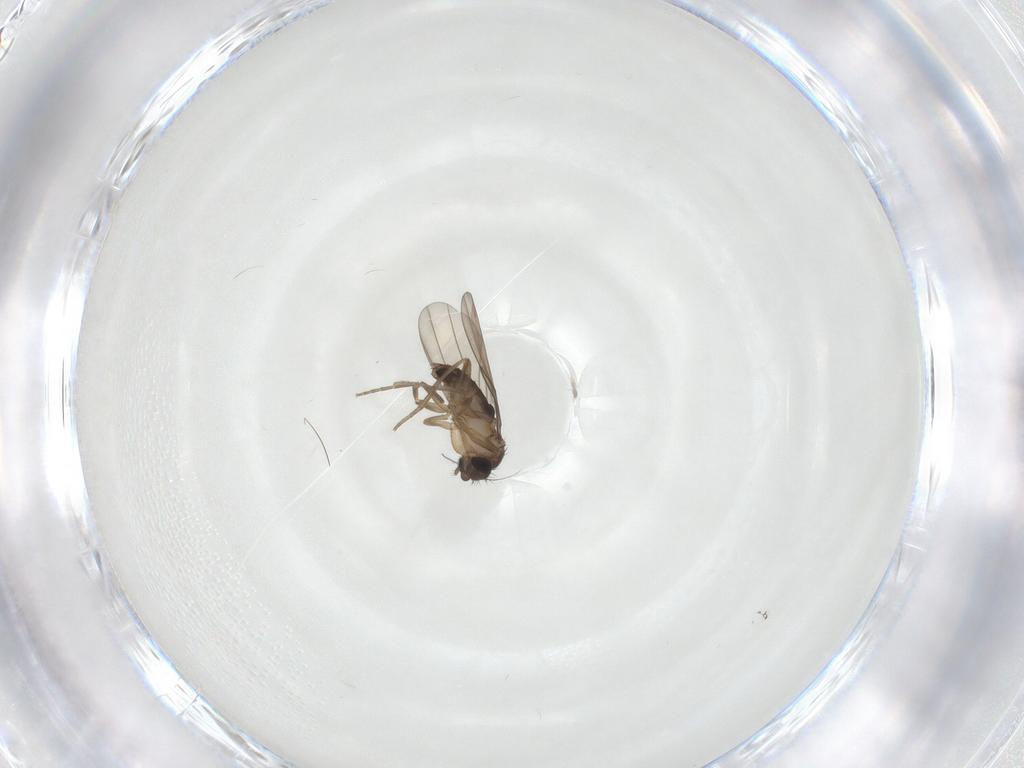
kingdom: Animalia
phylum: Arthropoda
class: Insecta
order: Diptera
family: Phoridae
